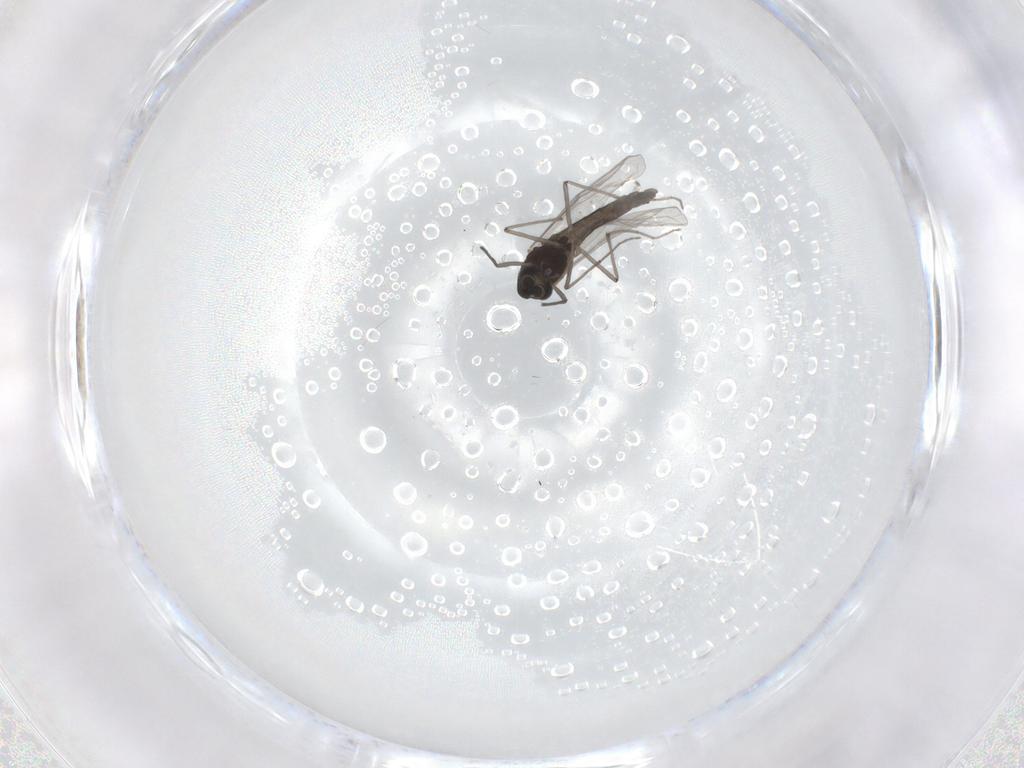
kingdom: Animalia
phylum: Arthropoda
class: Insecta
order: Diptera
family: Chironomidae
